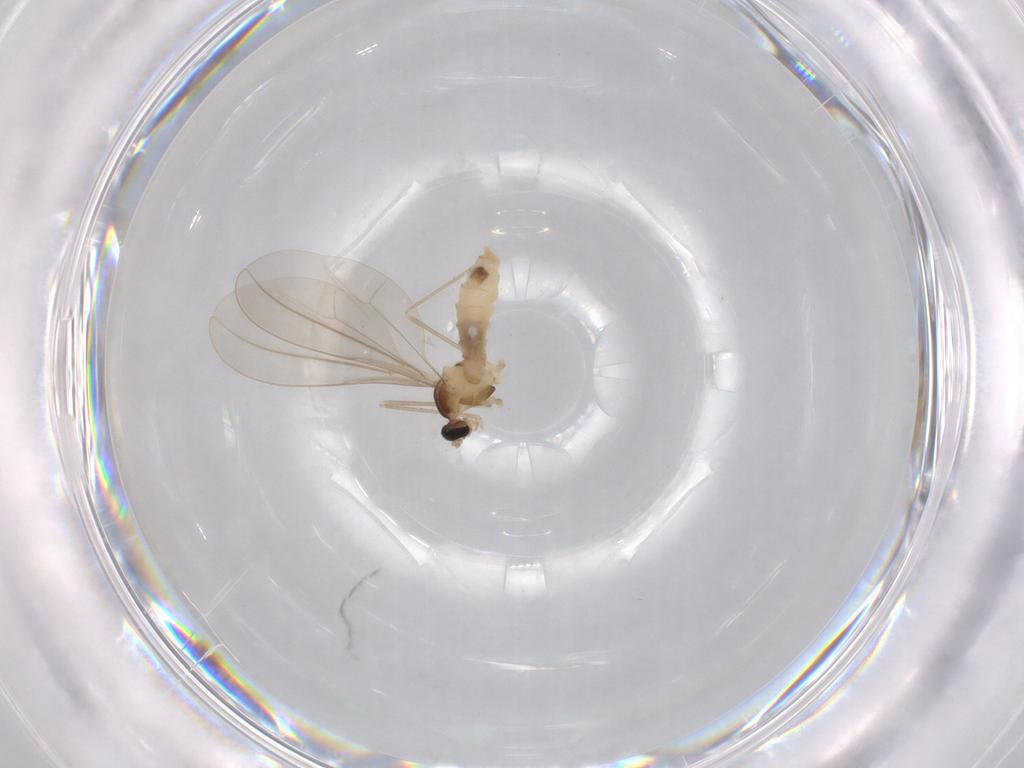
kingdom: Animalia
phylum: Arthropoda
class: Insecta
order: Diptera
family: Cecidomyiidae
